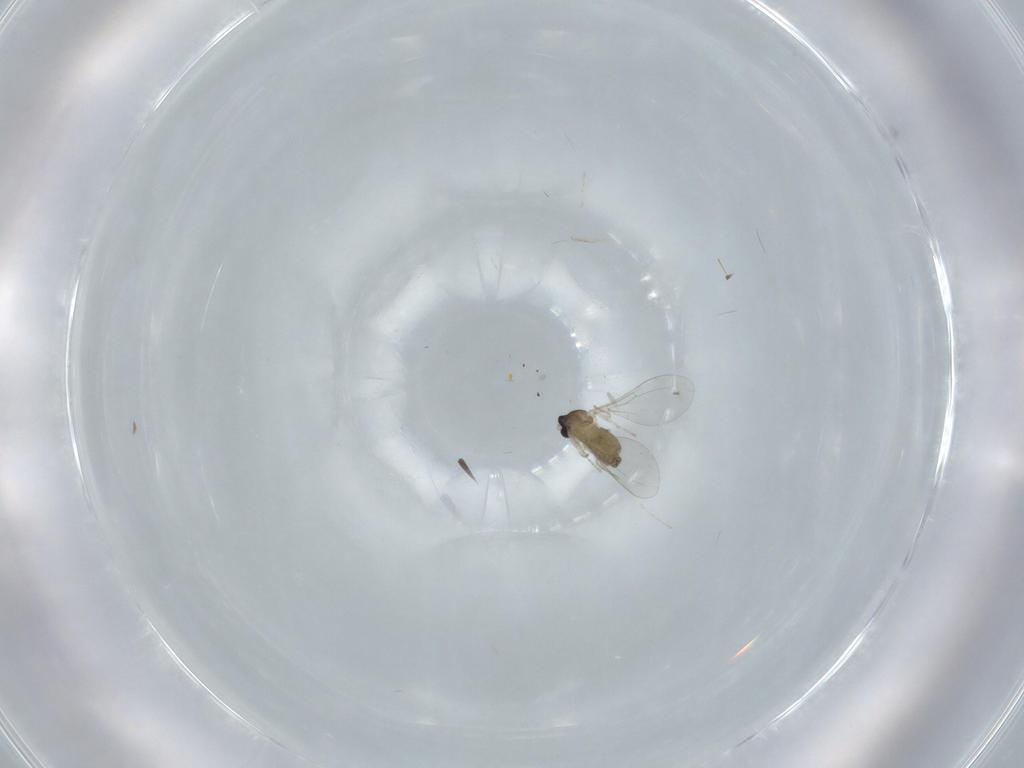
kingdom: Animalia
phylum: Arthropoda
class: Insecta
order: Diptera
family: Cecidomyiidae
